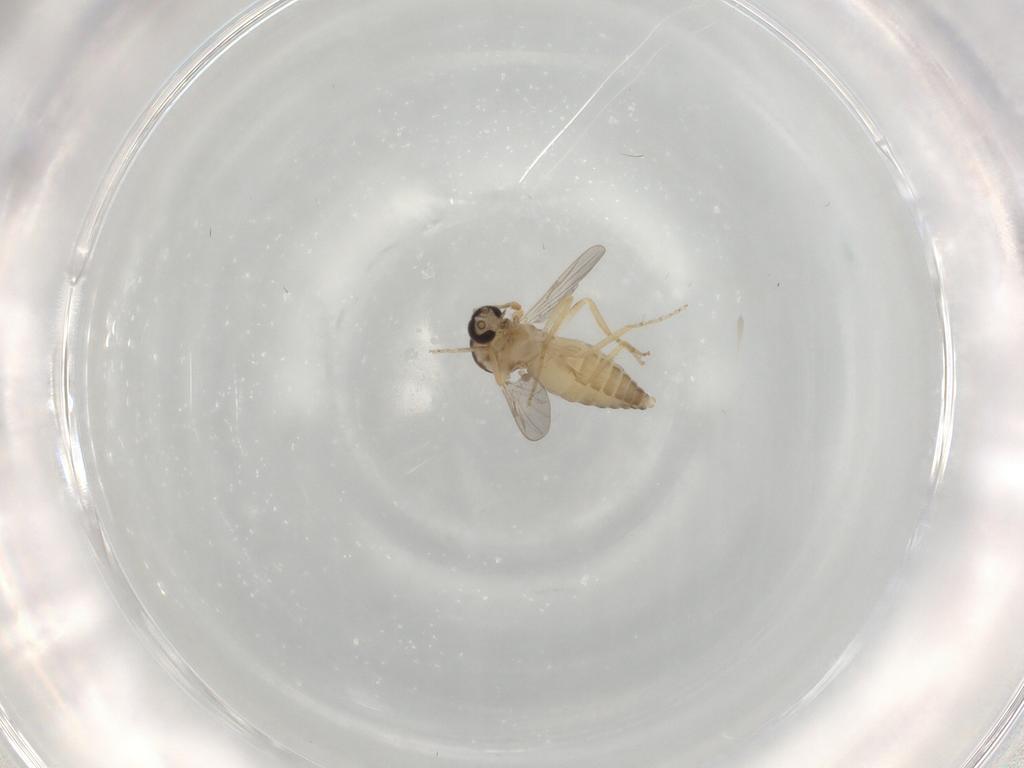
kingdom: Animalia
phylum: Arthropoda
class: Insecta
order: Diptera
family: Ceratopogonidae
